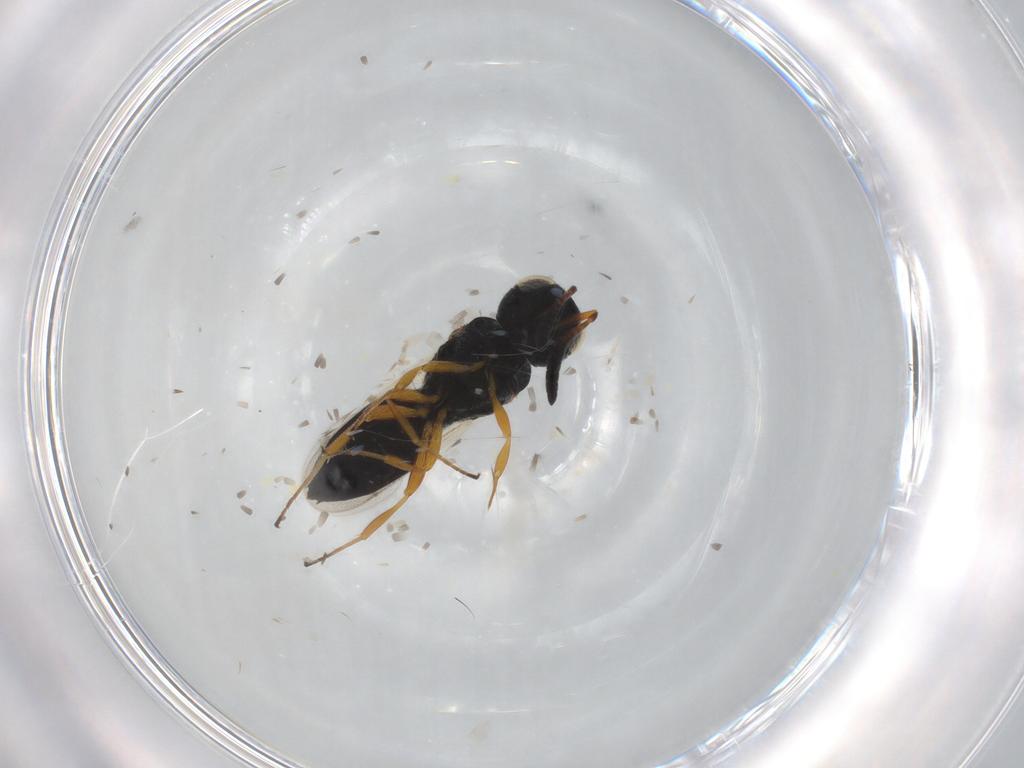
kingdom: Animalia
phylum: Arthropoda
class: Insecta
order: Hymenoptera
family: Scelionidae
